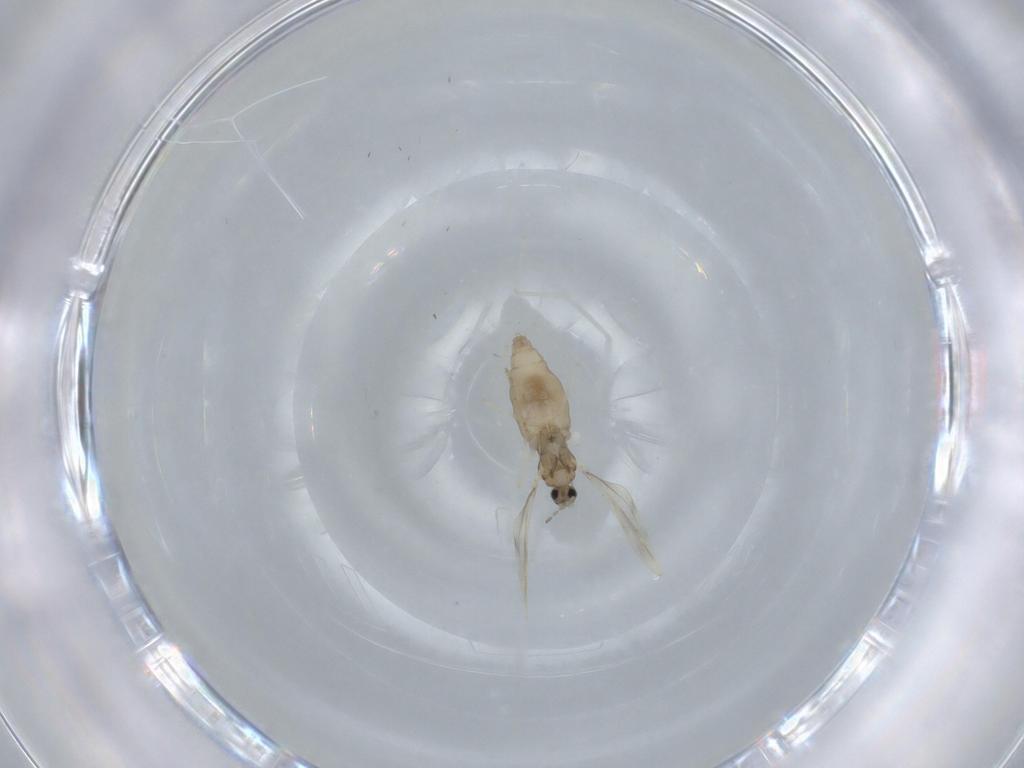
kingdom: Animalia
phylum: Arthropoda
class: Insecta
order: Diptera
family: Cecidomyiidae
